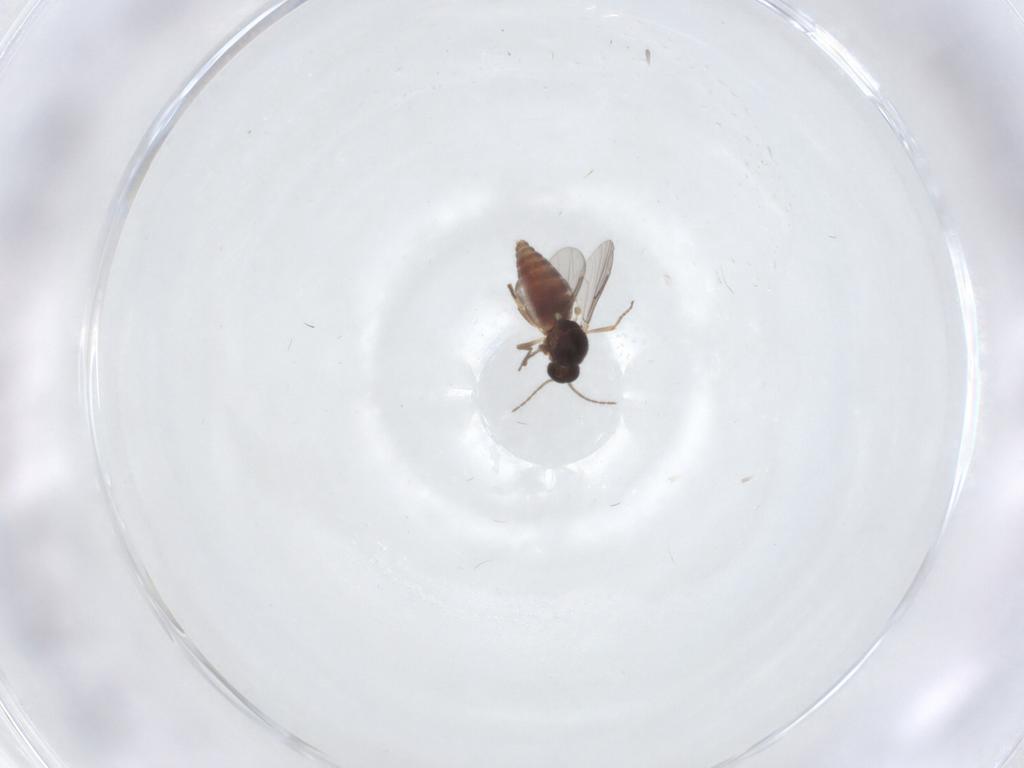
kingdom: Animalia
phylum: Arthropoda
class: Insecta
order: Diptera
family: Ceratopogonidae
